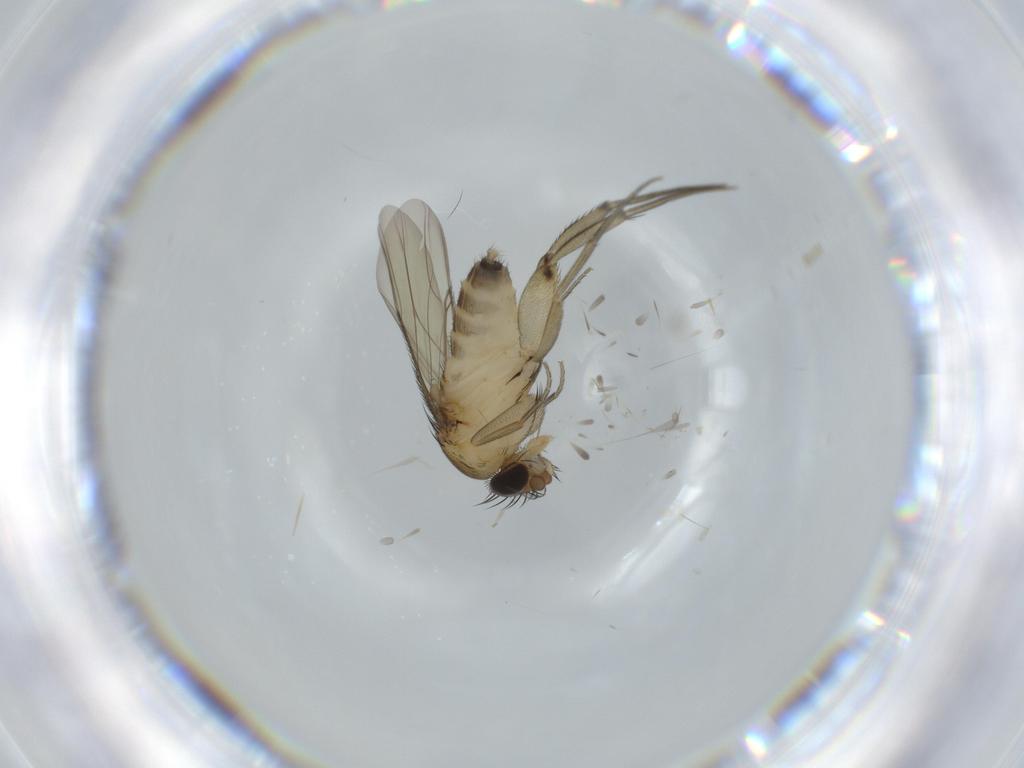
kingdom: Animalia
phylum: Arthropoda
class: Insecta
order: Diptera
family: Phoridae
